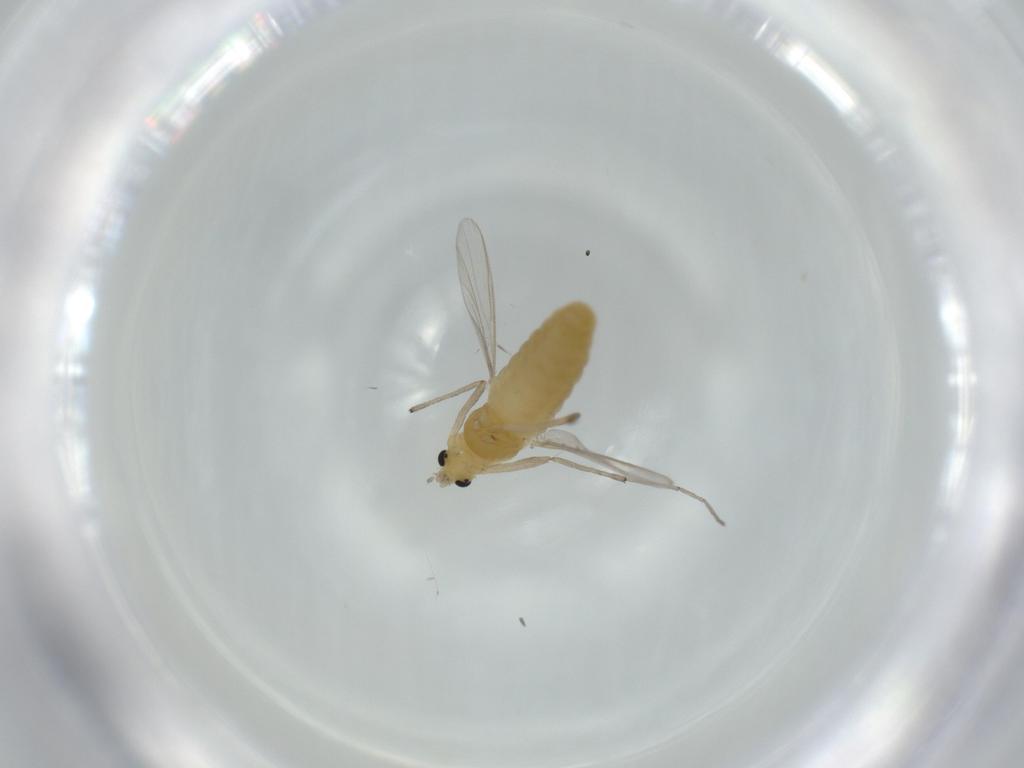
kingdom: Animalia
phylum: Arthropoda
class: Insecta
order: Diptera
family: Chironomidae
